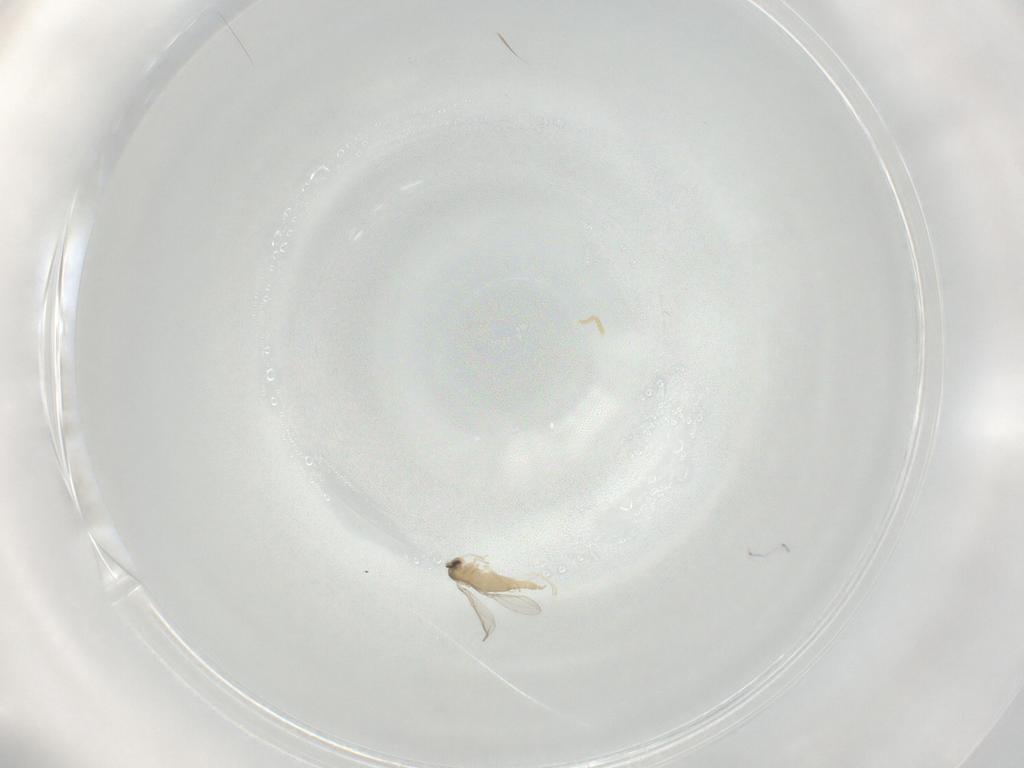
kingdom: Animalia
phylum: Arthropoda
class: Insecta
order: Diptera
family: Cecidomyiidae
